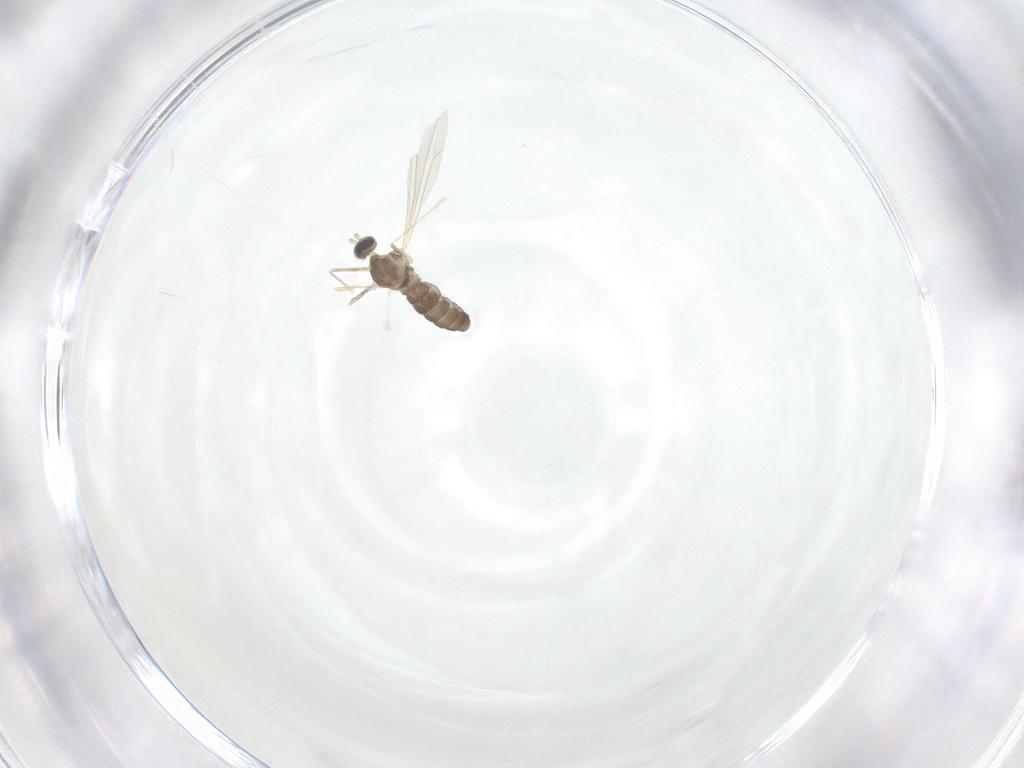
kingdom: Animalia
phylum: Arthropoda
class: Insecta
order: Diptera
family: Cecidomyiidae
